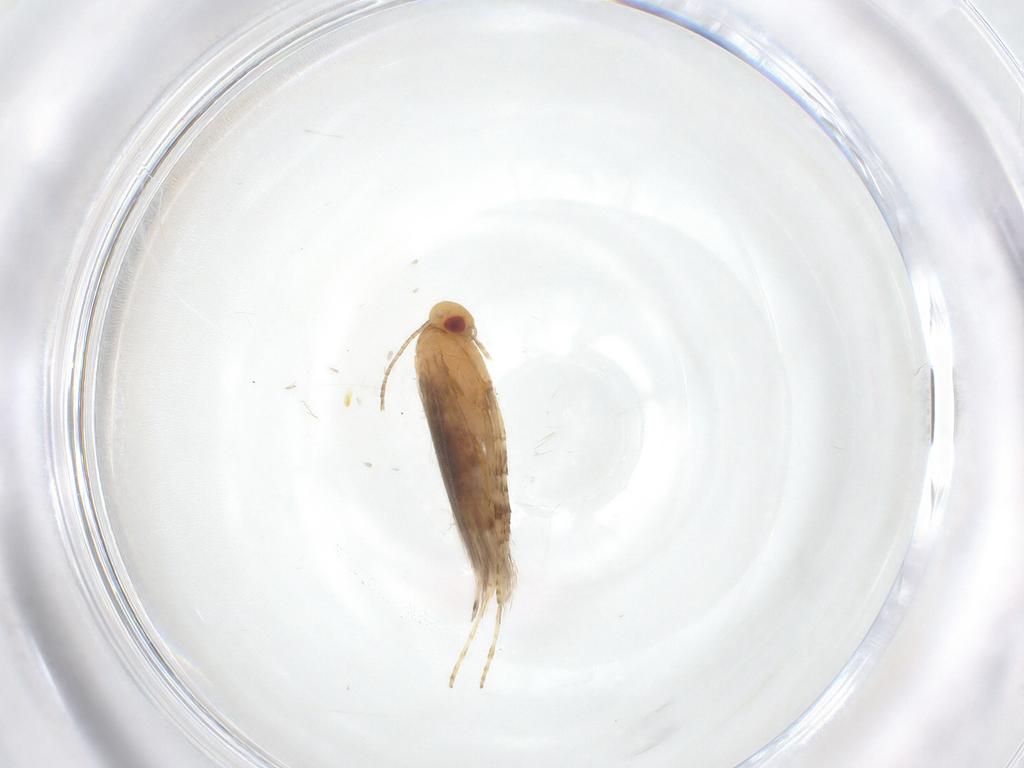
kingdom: Animalia
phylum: Arthropoda
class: Insecta
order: Lepidoptera
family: Gracillariidae
